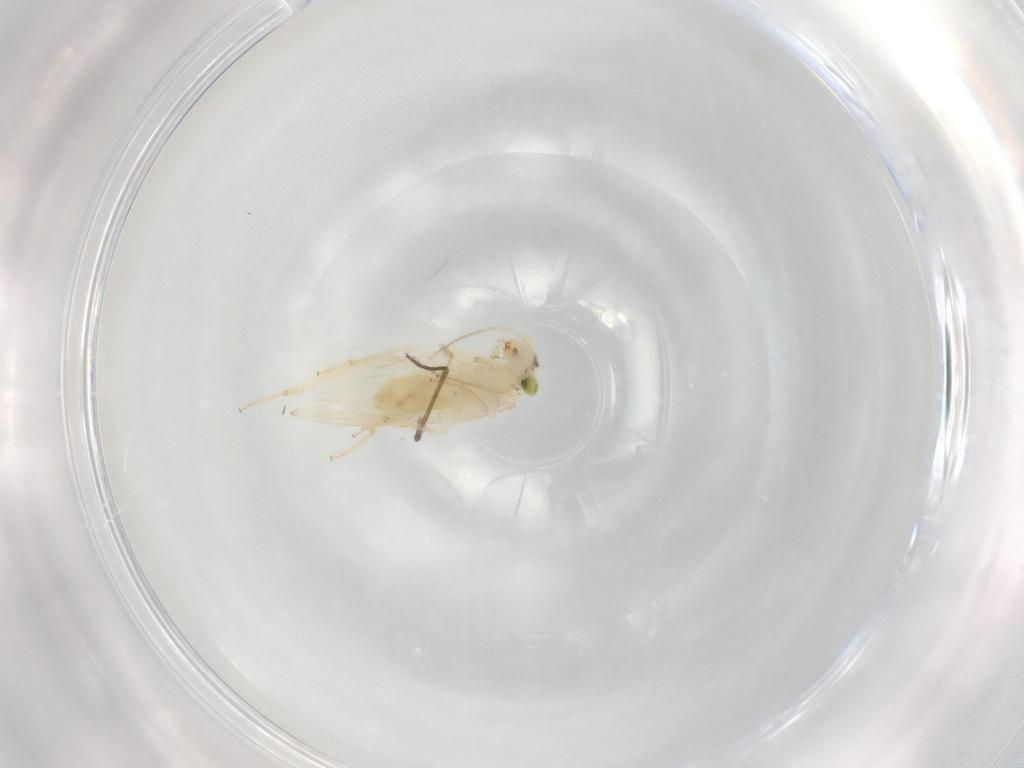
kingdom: Animalia
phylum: Arthropoda
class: Insecta
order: Psocodea
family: Lepidopsocidae
